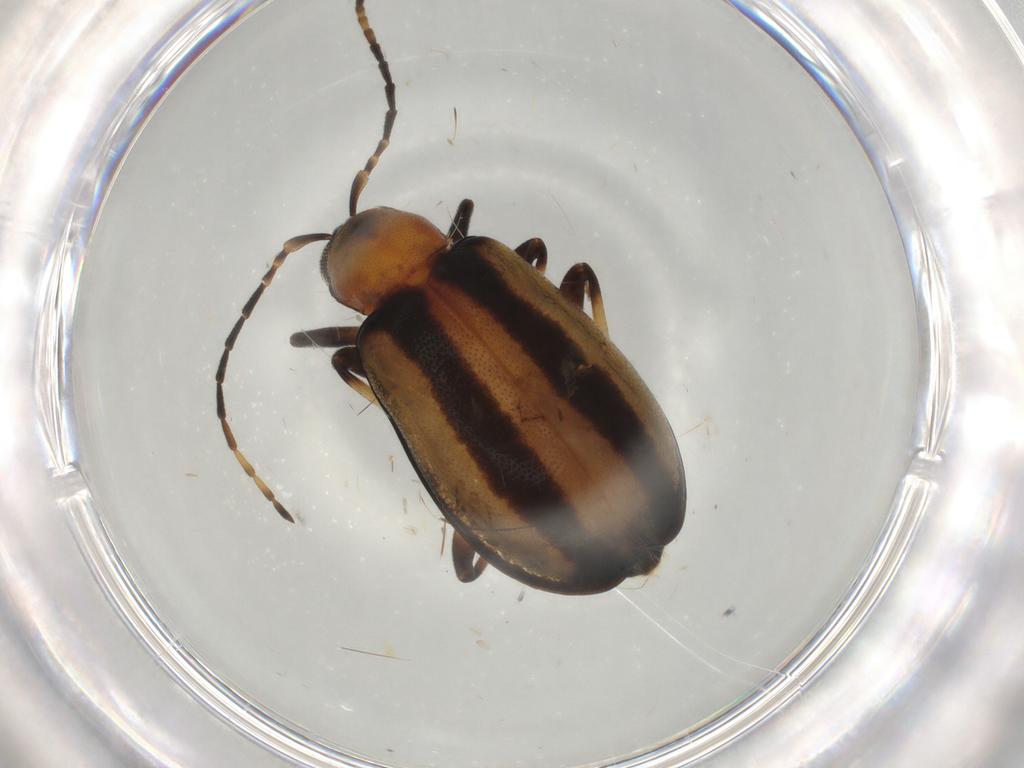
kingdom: Animalia
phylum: Arthropoda
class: Insecta
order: Coleoptera
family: Chrysomelidae
